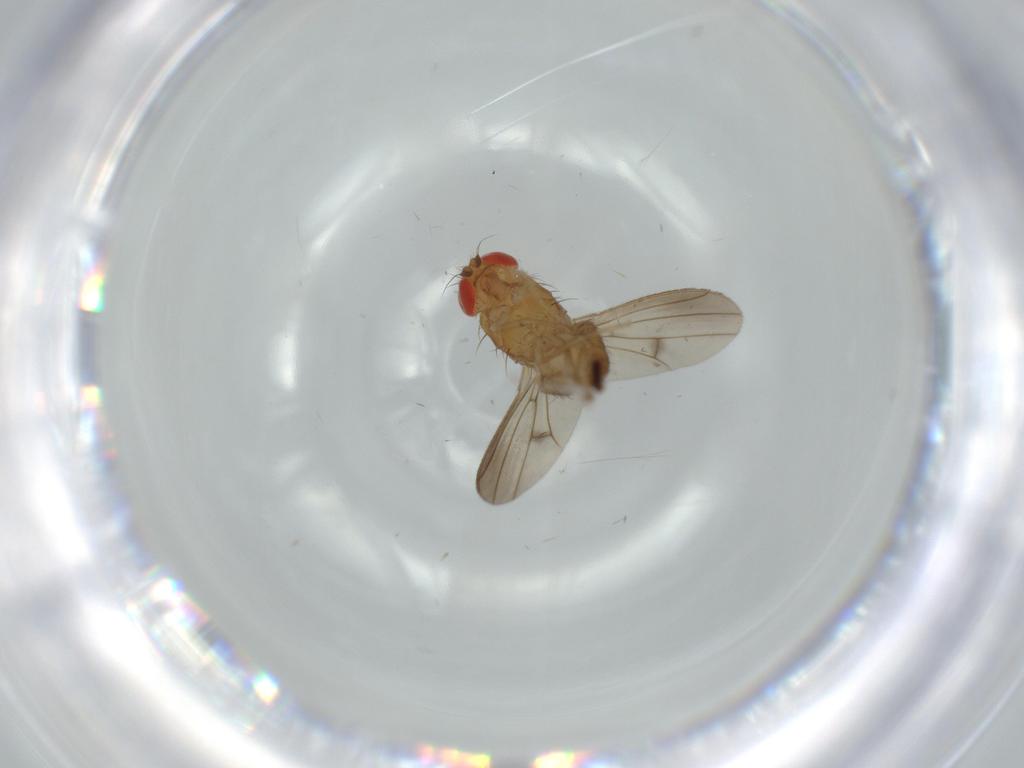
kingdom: Animalia
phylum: Arthropoda
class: Insecta
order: Diptera
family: Drosophilidae
